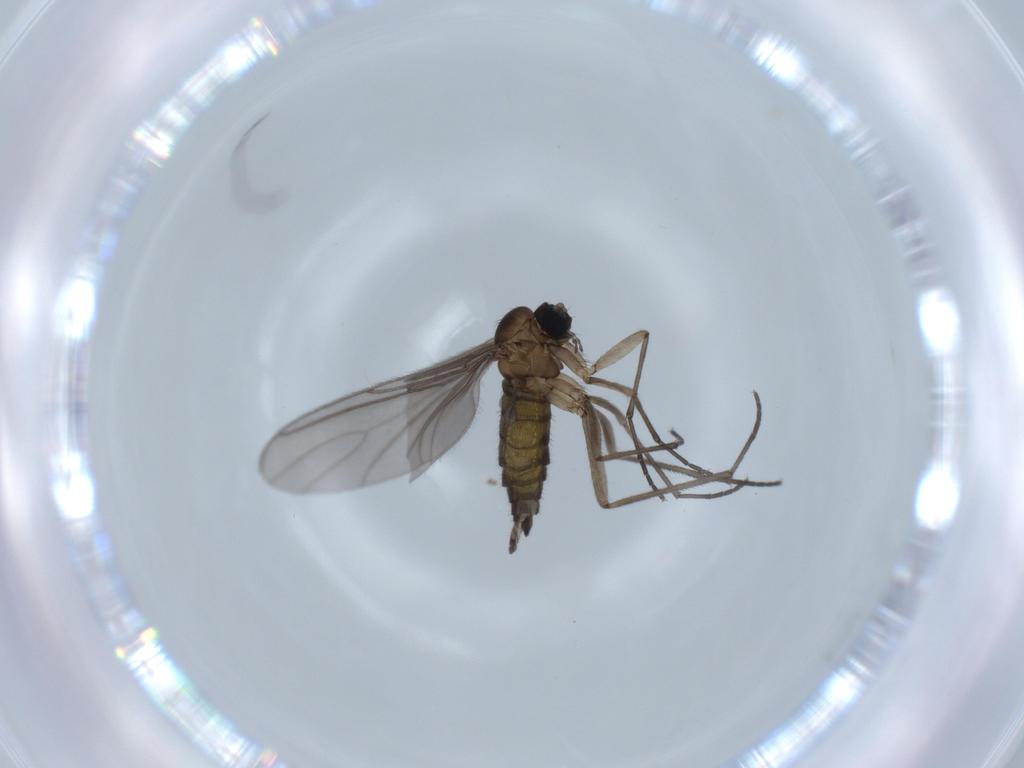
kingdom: Animalia
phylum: Arthropoda
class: Insecta
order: Diptera
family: Sciaridae
